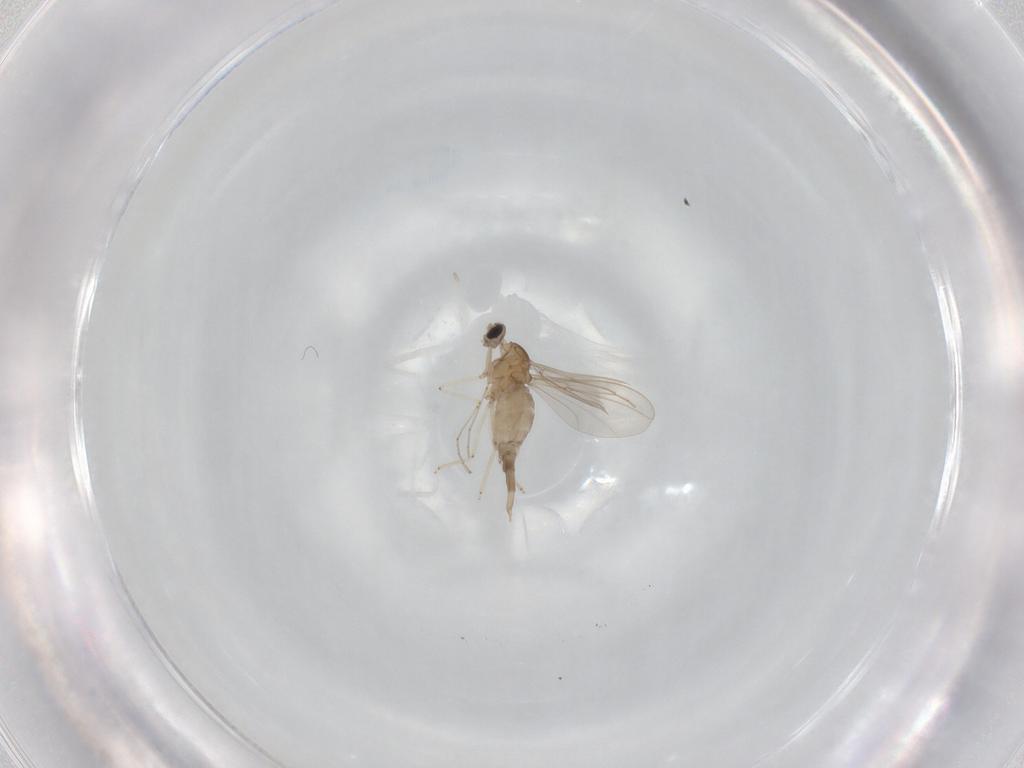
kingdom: Animalia
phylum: Arthropoda
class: Insecta
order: Diptera
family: Cecidomyiidae
